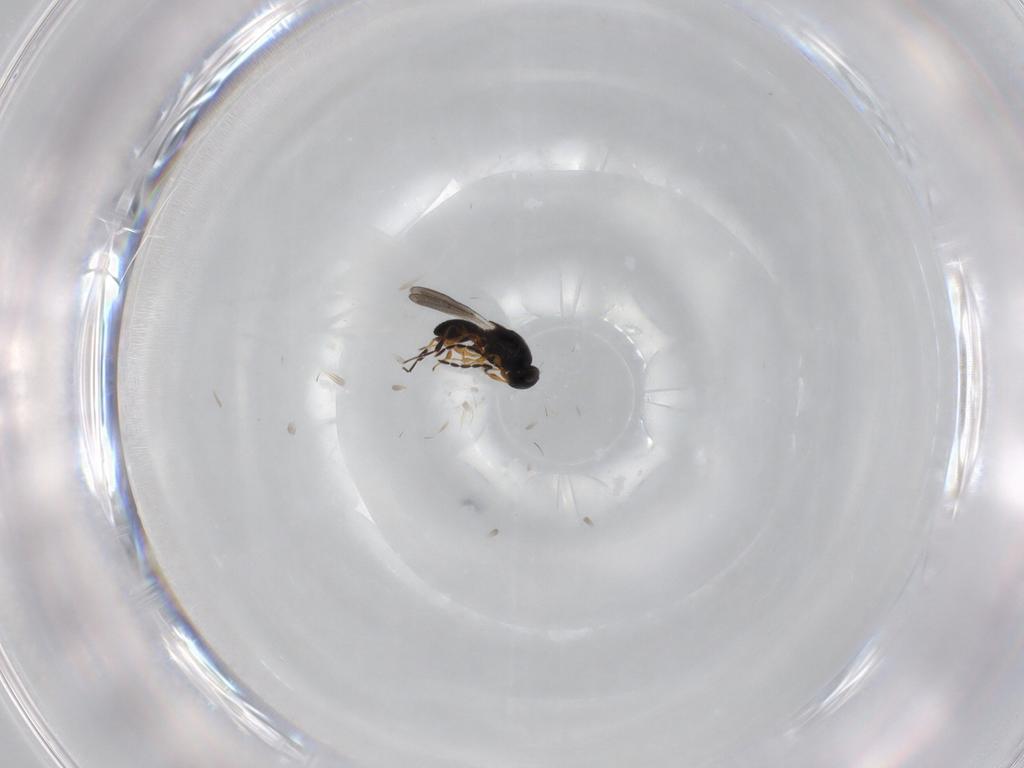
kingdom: Animalia
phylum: Arthropoda
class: Insecta
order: Hymenoptera
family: Platygastridae
